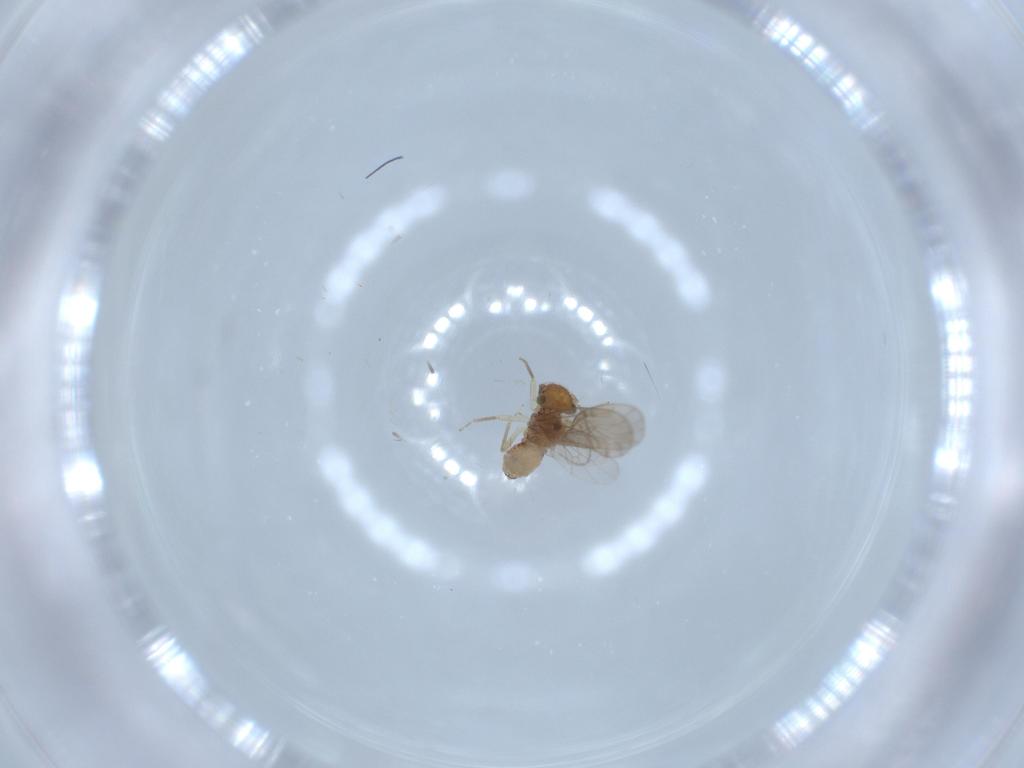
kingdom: Animalia
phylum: Arthropoda
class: Insecta
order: Psocodea
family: Ectopsocidae
